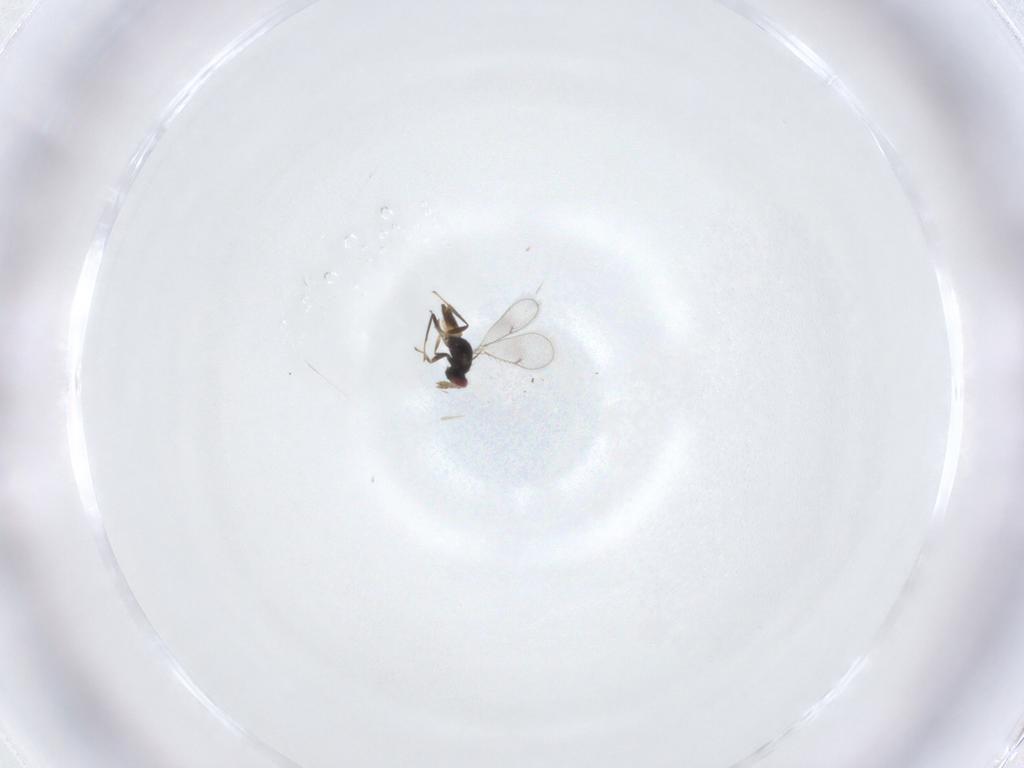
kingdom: Animalia
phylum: Arthropoda
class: Insecta
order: Hymenoptera
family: Eulophidae
